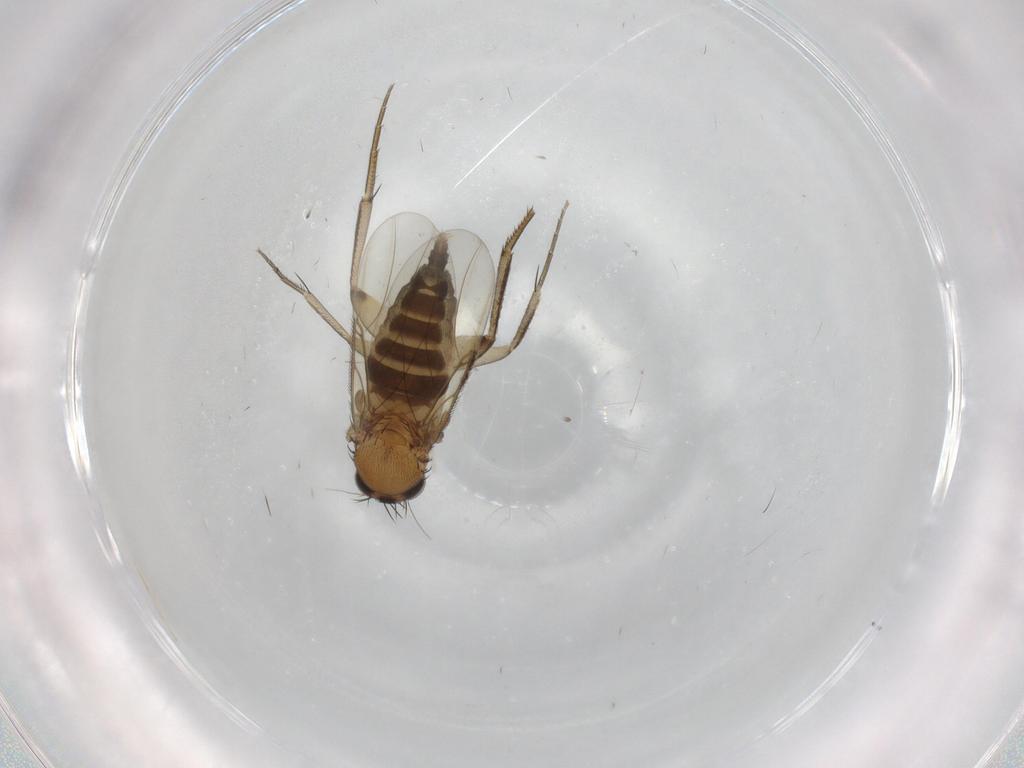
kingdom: Animalia
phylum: Arthropoda
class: Insecta
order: Diptera
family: Phoridae
